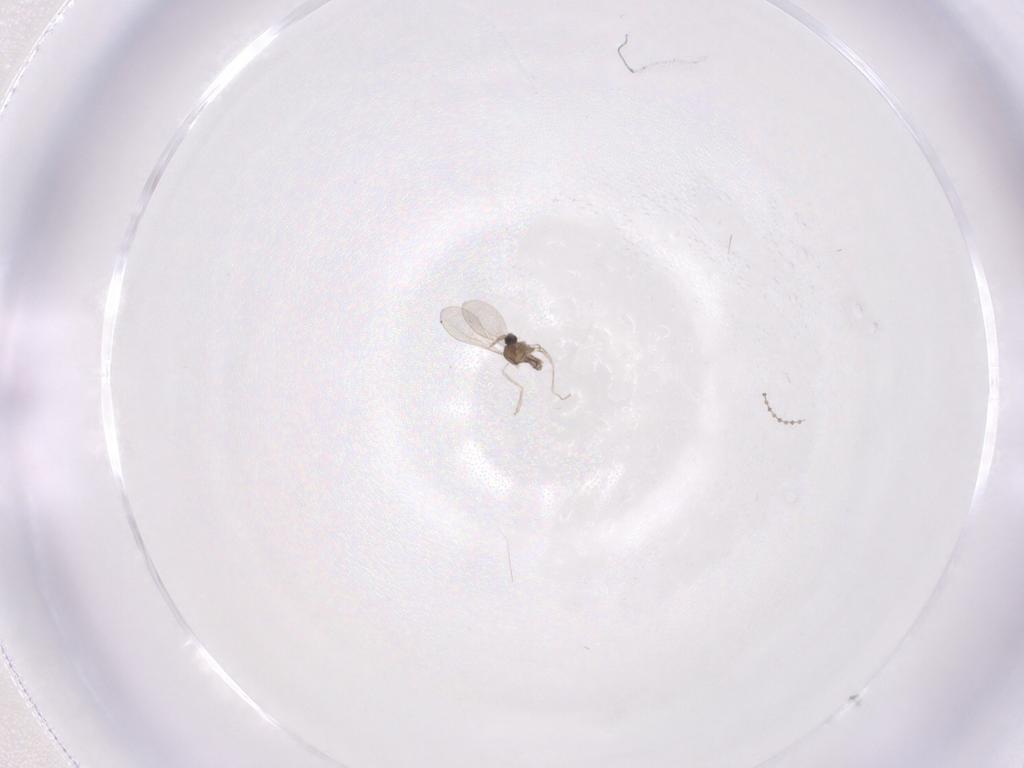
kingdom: Animalia
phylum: Arthropoda
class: Insecta
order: Diptera
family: Cecidomyiidae
